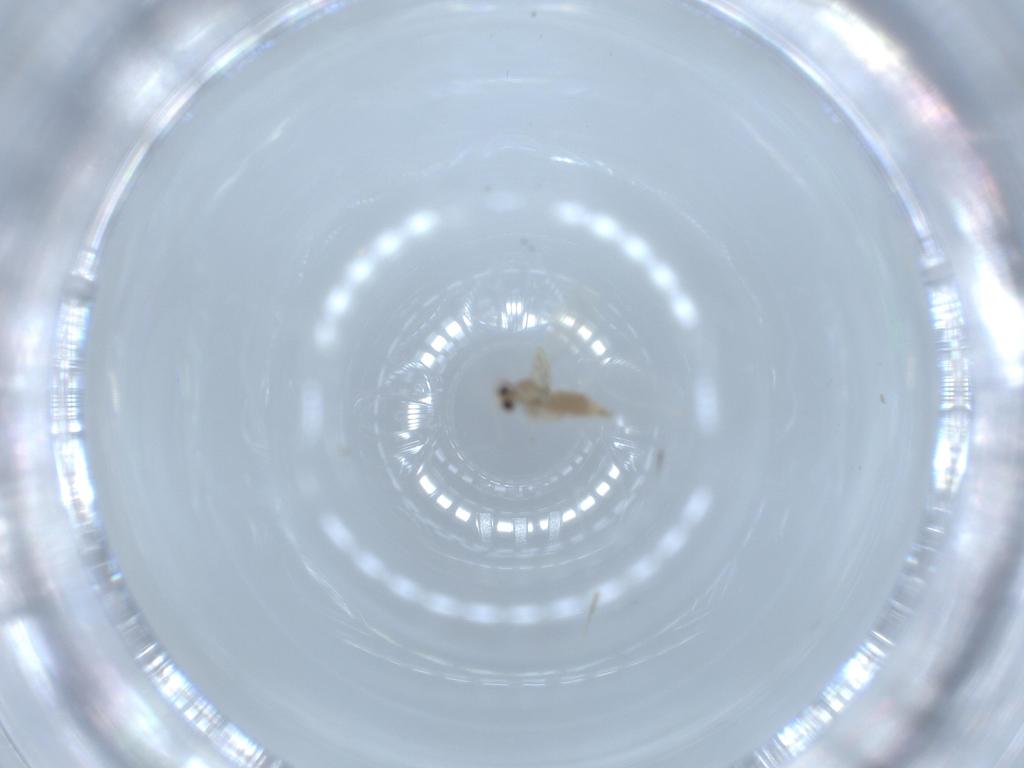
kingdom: Animalia
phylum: Arthropoda
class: Insecta
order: Diptera
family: Cecidomyiidae
